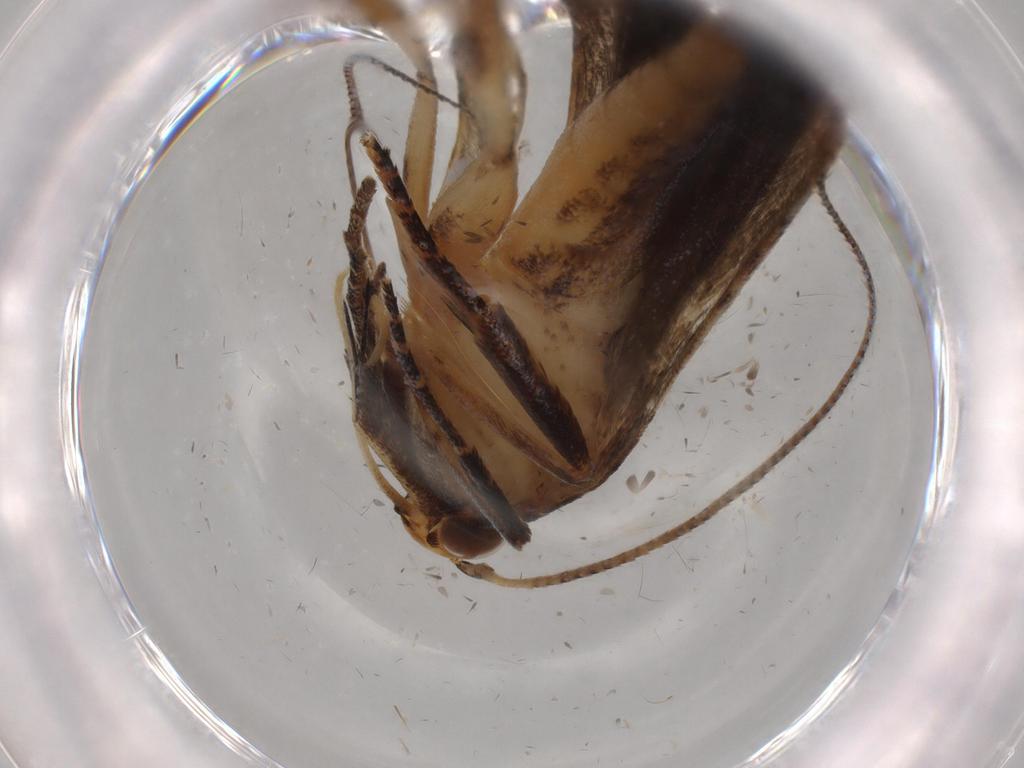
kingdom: Animalia
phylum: Arthropoda
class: Insecta
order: Lepidoptera
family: Gelechiidae
